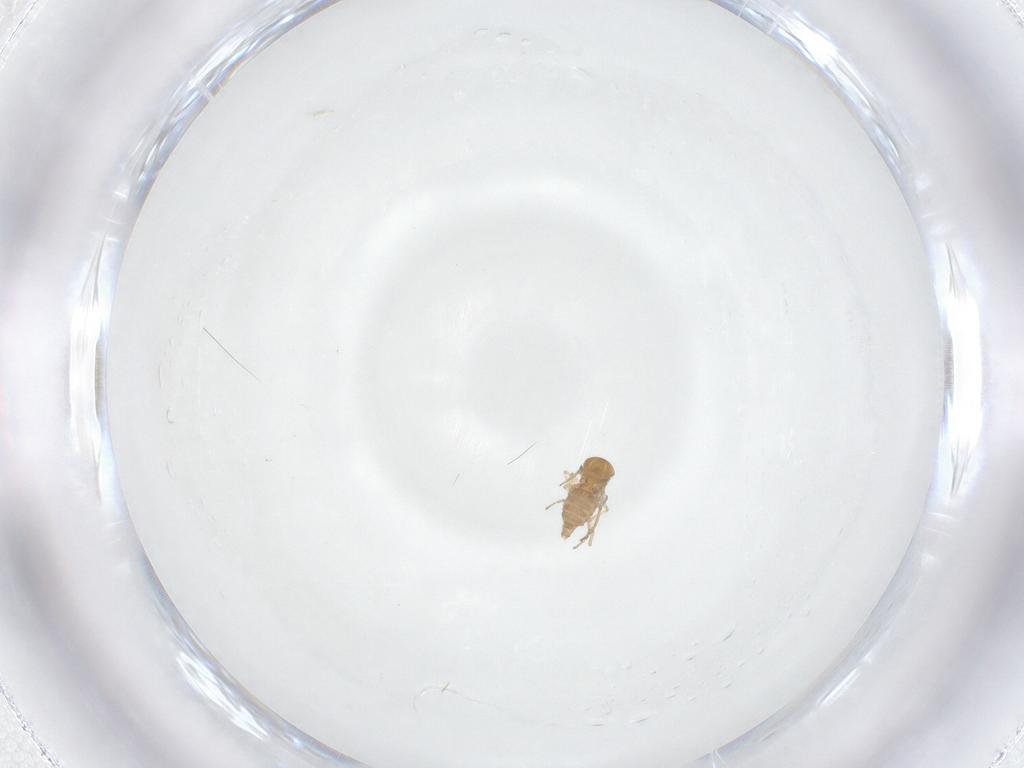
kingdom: Animalia
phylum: Arthropoda
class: Insecta
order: Diptera
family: Ceratopogonidae
